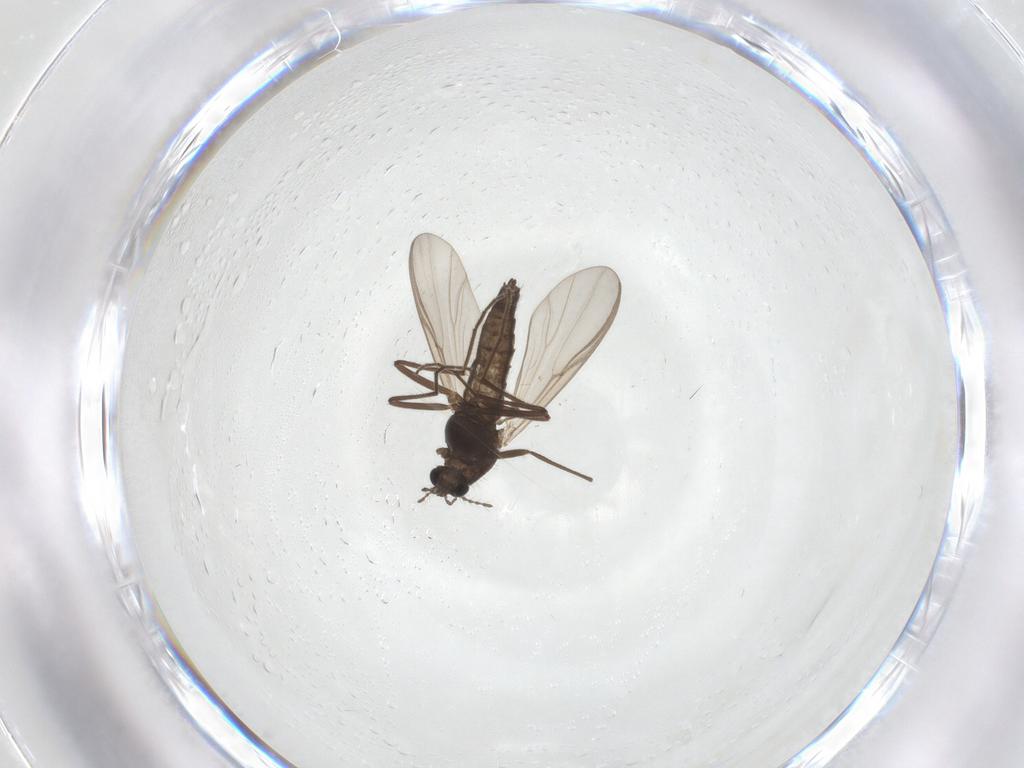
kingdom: Animalia
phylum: Arthropoda
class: Insecta
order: Diptera
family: Chironomidae
